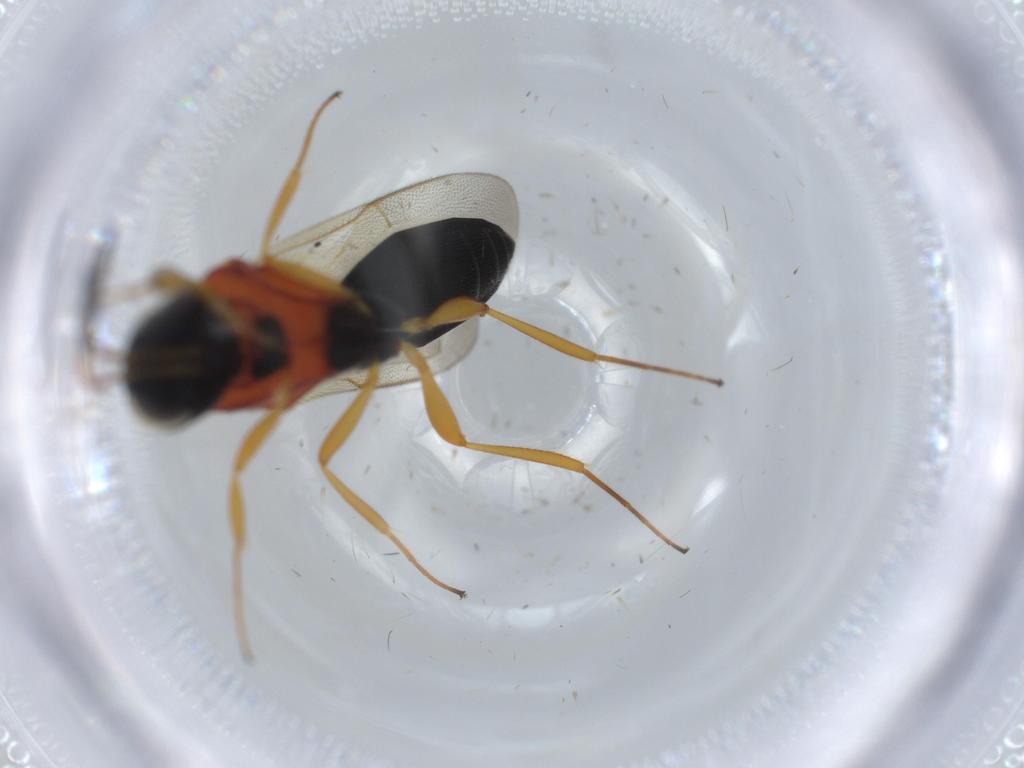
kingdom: Animalia
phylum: Arthropoda
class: Insecta
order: Hymenoptera
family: Scelionidae
